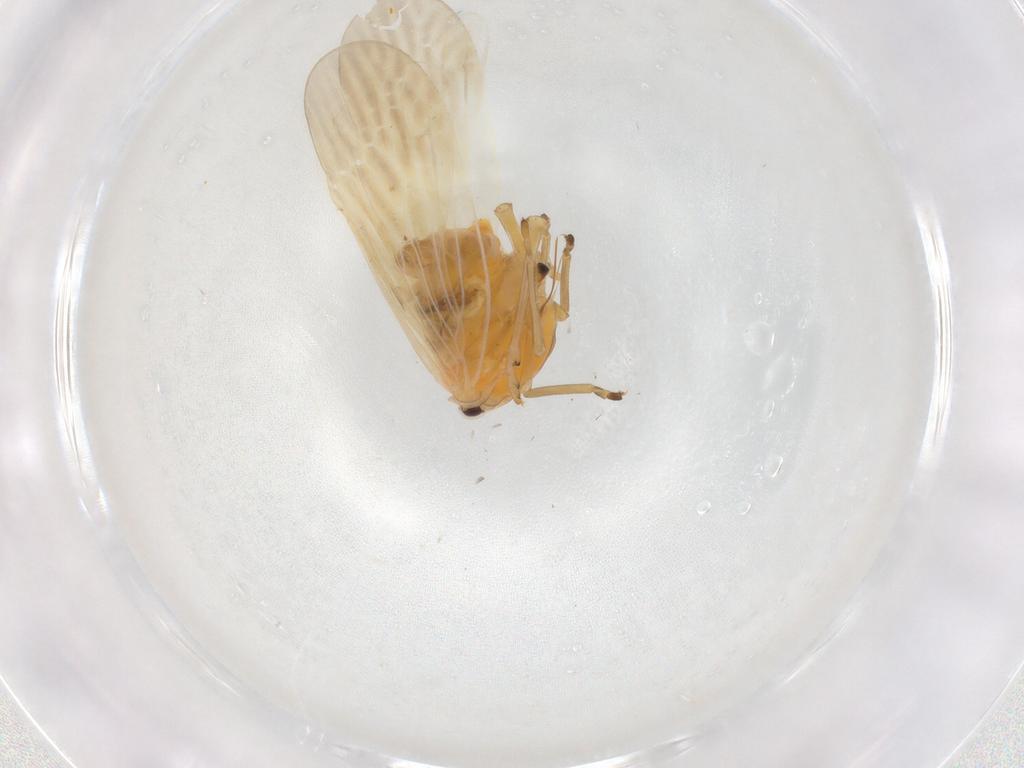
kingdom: Animalia
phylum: Arthropoda
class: Insecta
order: Hemiptera
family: Rhyparochromidae
